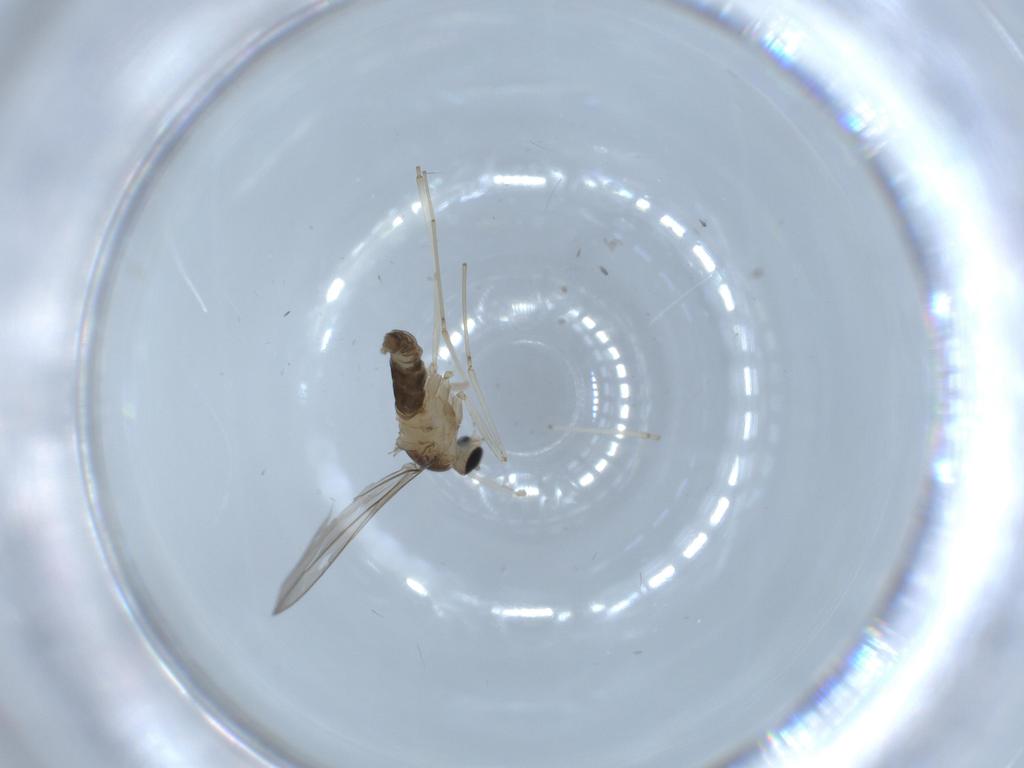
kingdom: Animalia
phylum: Arthropoda
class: Insecta
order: Diptera
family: Cecidomyiidae
